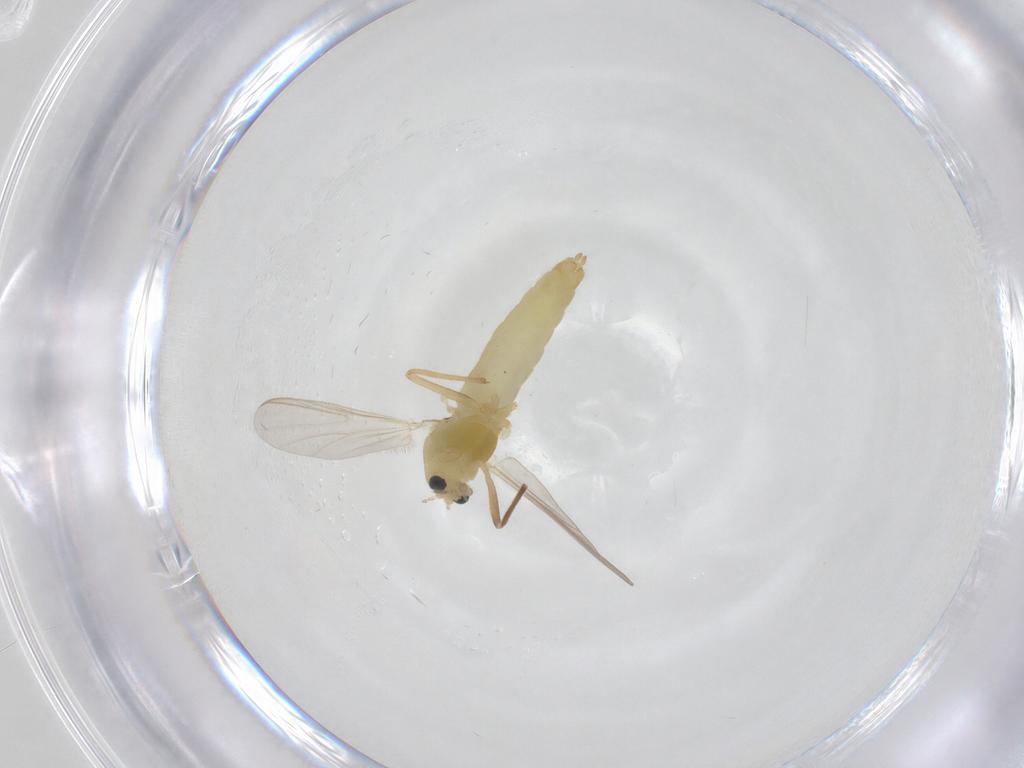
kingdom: Animalia
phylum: Arthropoda
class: Insecta
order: Diptera
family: Chironomidae
